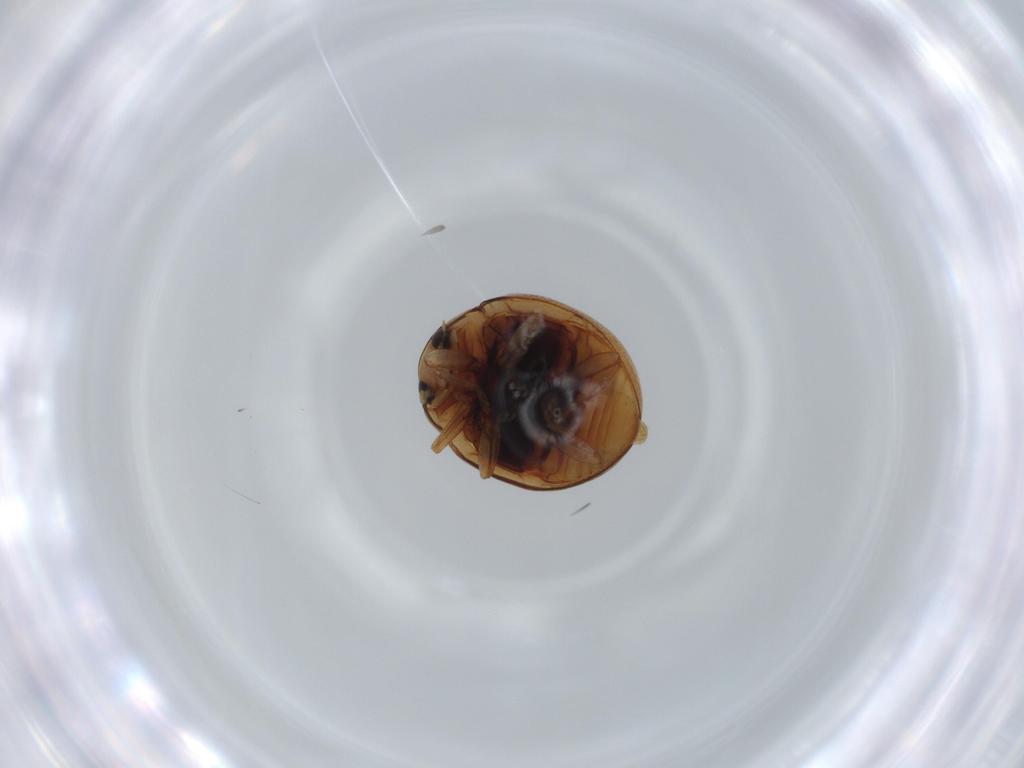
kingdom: Animalia
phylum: Arthropoda
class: Insecta
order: Coleoptera
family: Coccinellidae
